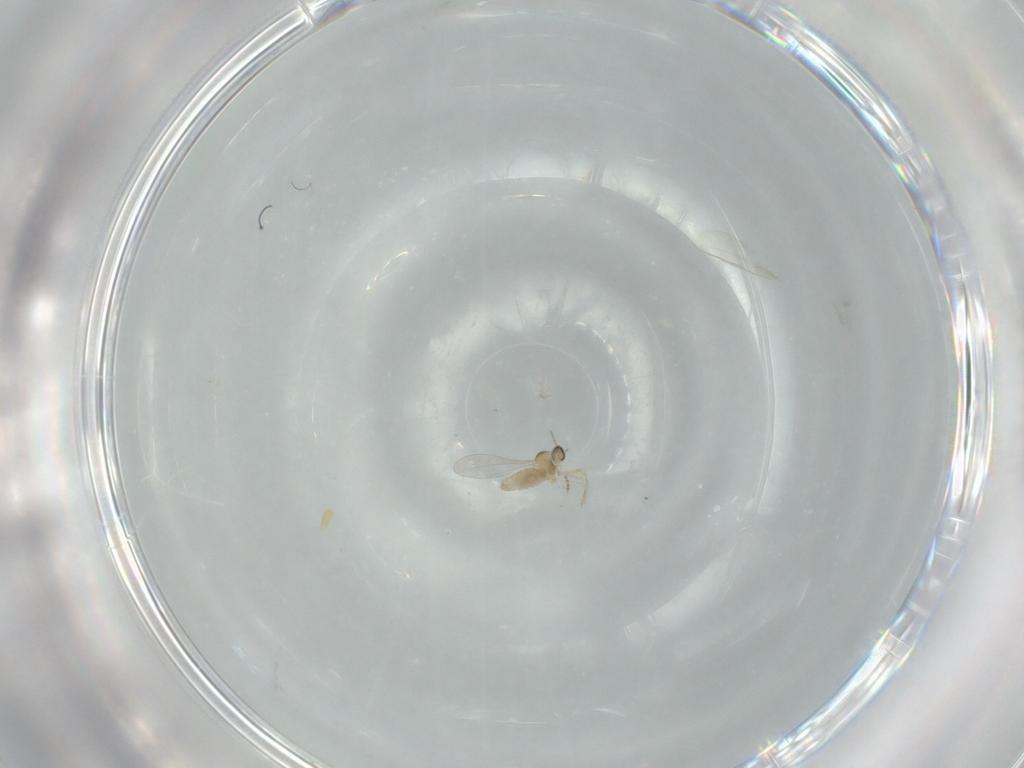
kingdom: Animalia
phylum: Arthropoda
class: Insecta
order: Diptera
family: Cecidomyiidae
